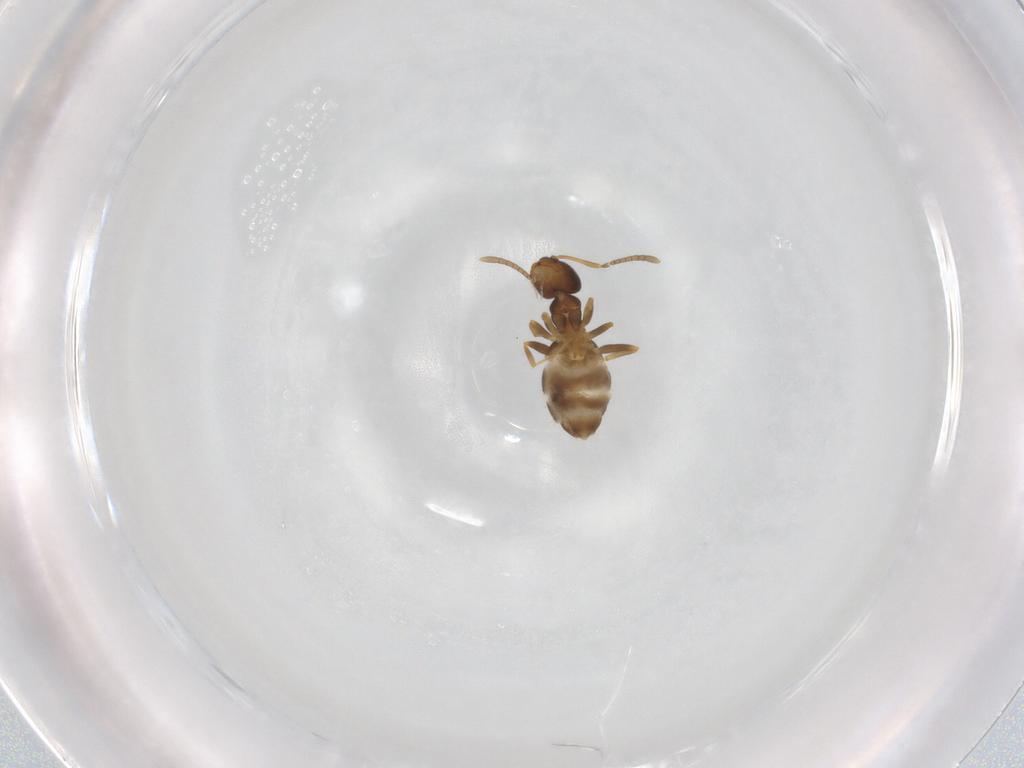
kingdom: Animalia
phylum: Arthropoda
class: Insecta
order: Hymenoptera
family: Formicidae
